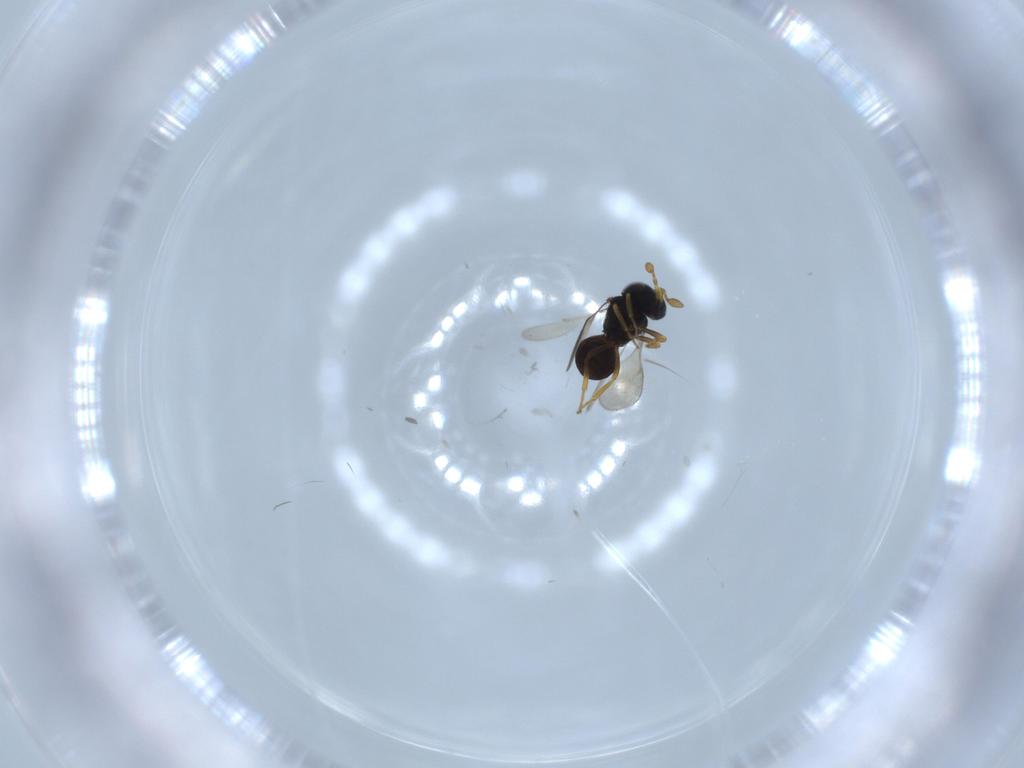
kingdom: Animalia
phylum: Arthropoda
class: Insecta
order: Hymenoptera
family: Scelionidae
